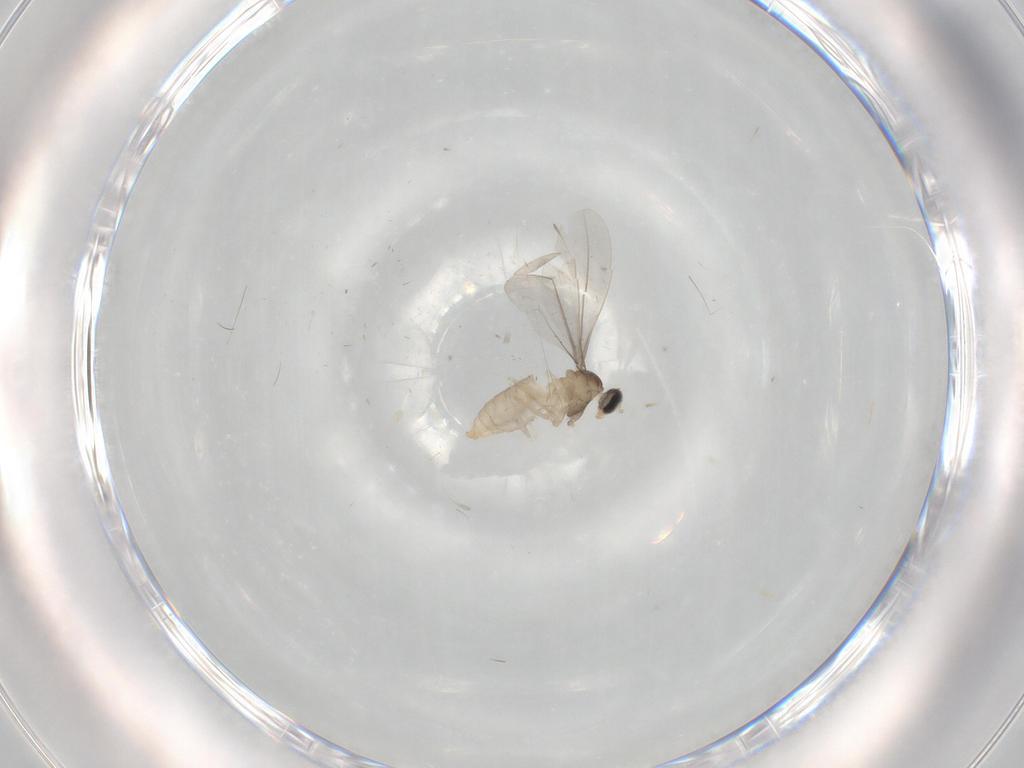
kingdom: Animalia
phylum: Arthropoda
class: Insecta
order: Diptera
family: Cecidomyiidae
